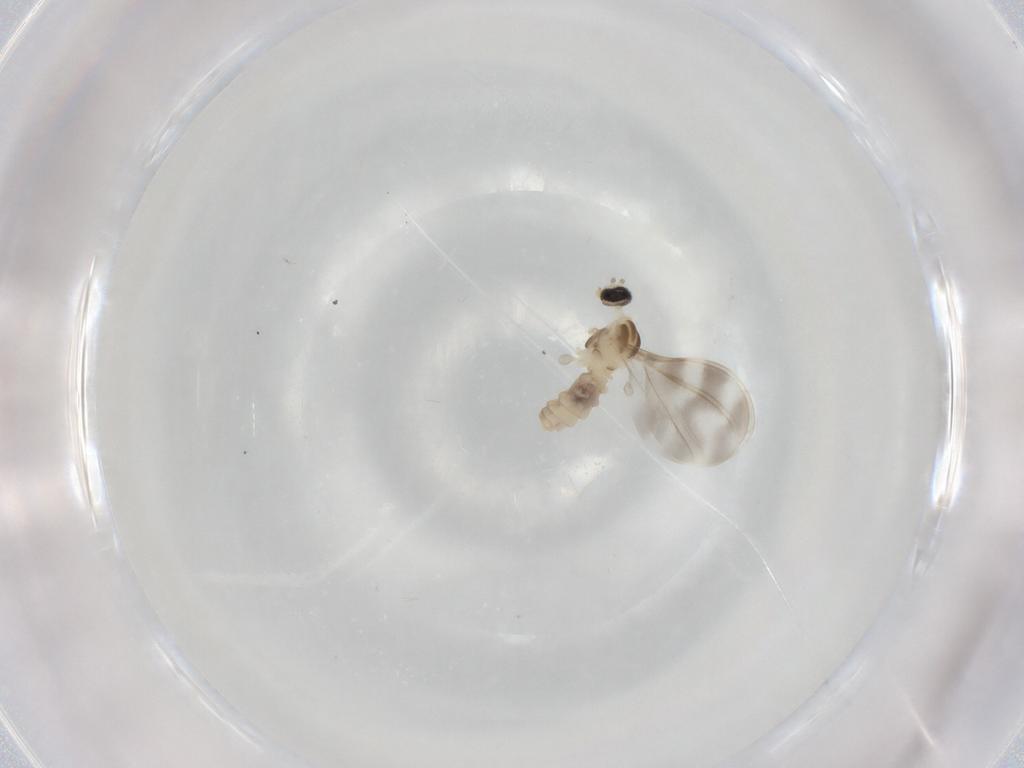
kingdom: Animalia
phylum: Arthropoda
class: Insecta
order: Diptera
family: Cecidomyiidae
